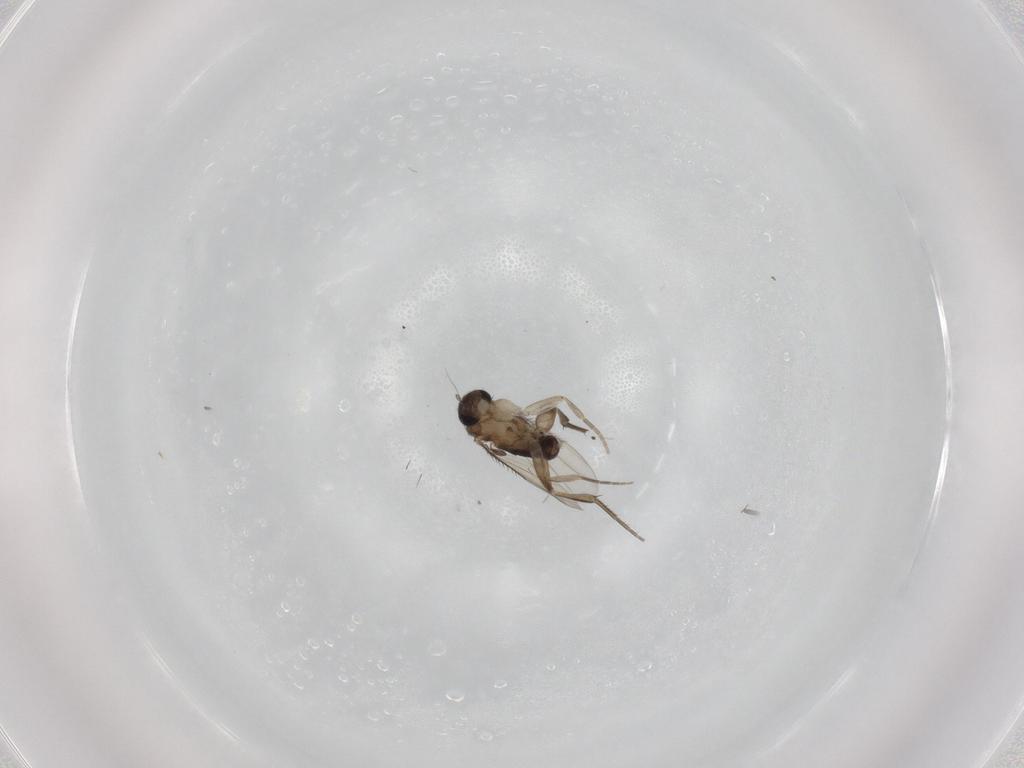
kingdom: Animalia
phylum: Arthropoda
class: Insecta
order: Diptera
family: Phoridae
